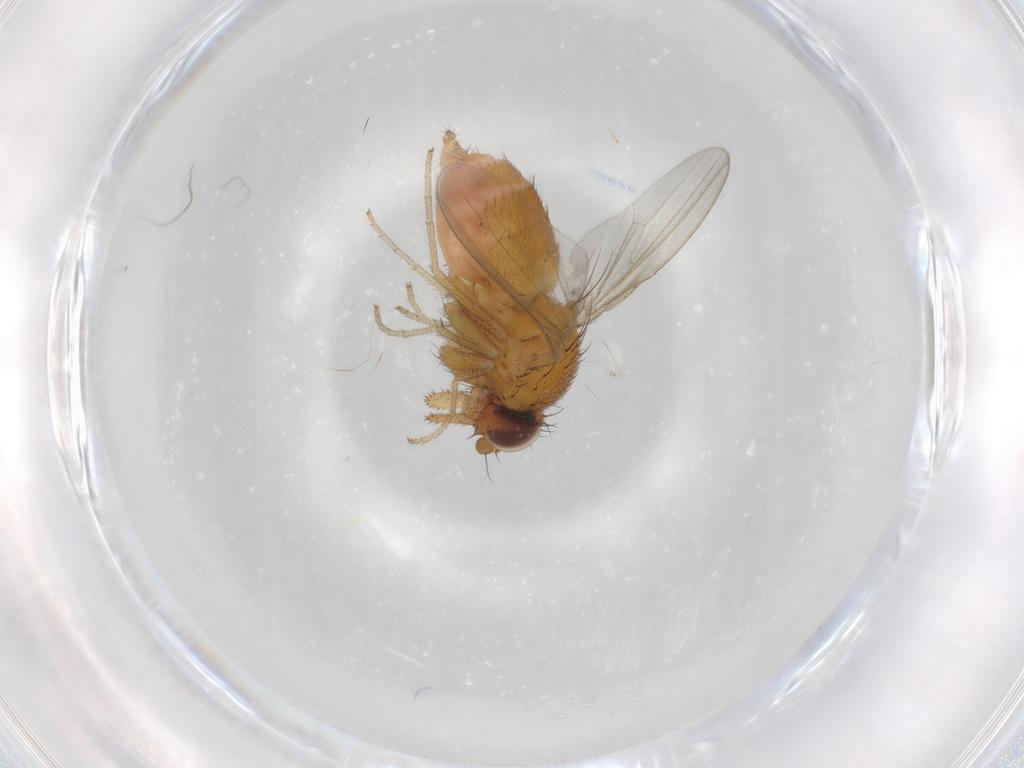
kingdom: Animalia
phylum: Arthropoda
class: Insecta
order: Diptera
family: Milichiidae
